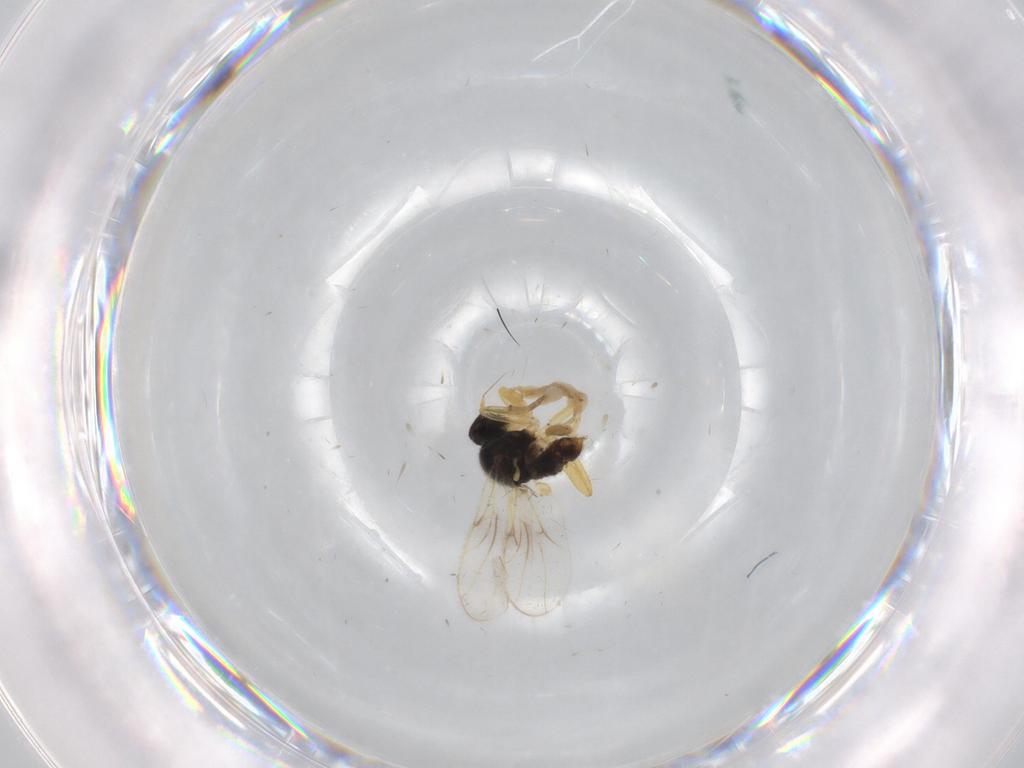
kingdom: Animalia
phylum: Arthropoda
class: Insecta
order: Diptera
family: Hybotidae
